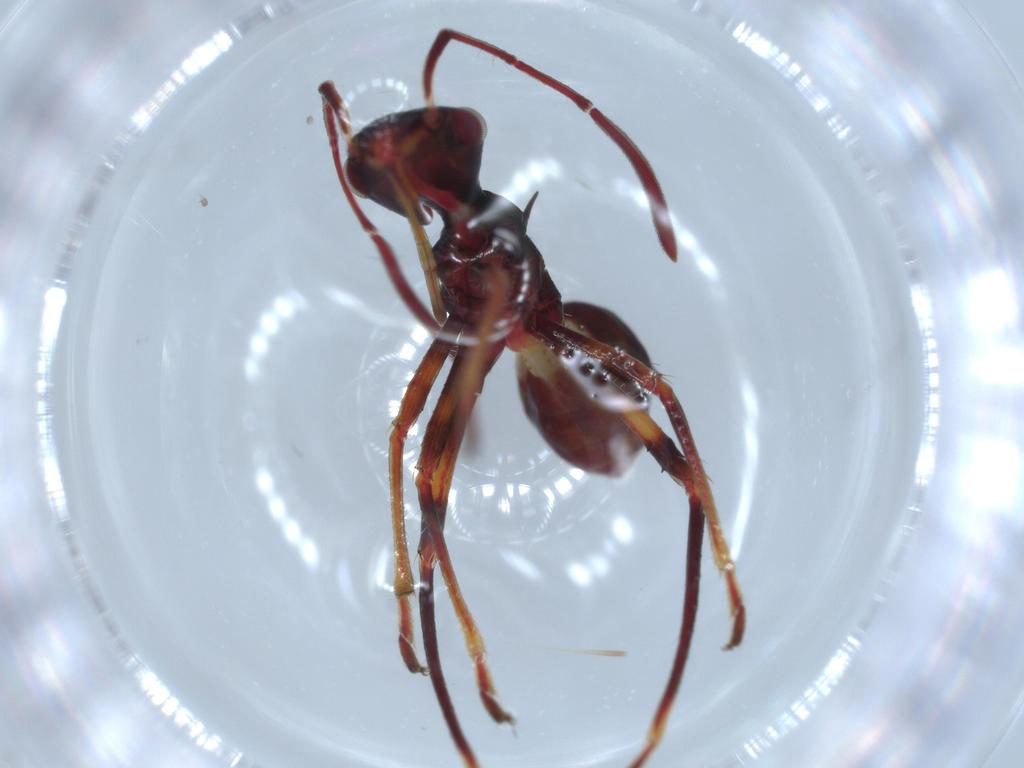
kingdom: Animalia
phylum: Arthropoda
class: Insecta
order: Hemiptera
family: Alydidae
